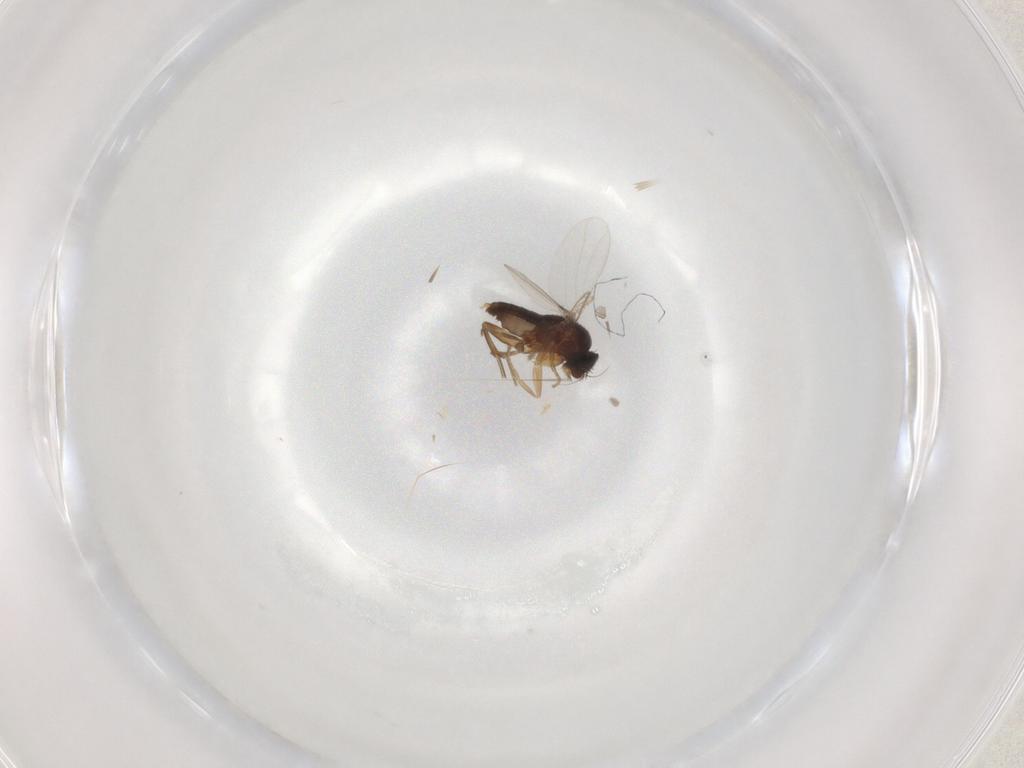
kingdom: Animalia
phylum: Arthropoda
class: Insecta
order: Diptera
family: Phoridae
